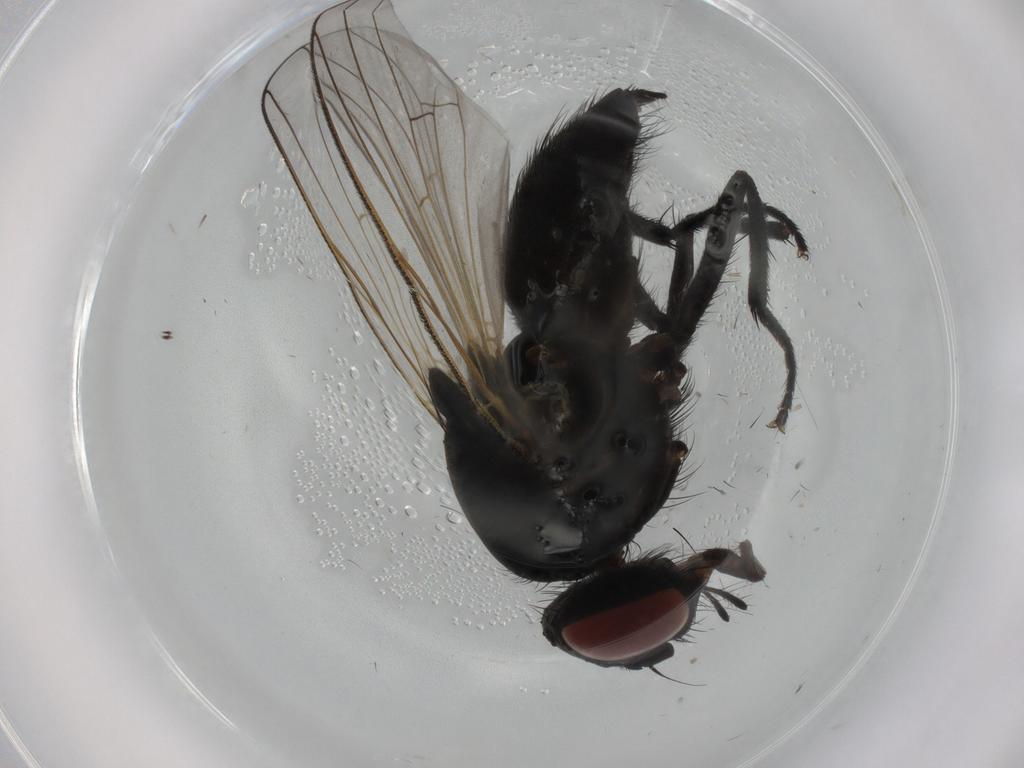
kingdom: Animalia
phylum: Arthropoda
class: Insecta
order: Diptera
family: Muscidae
